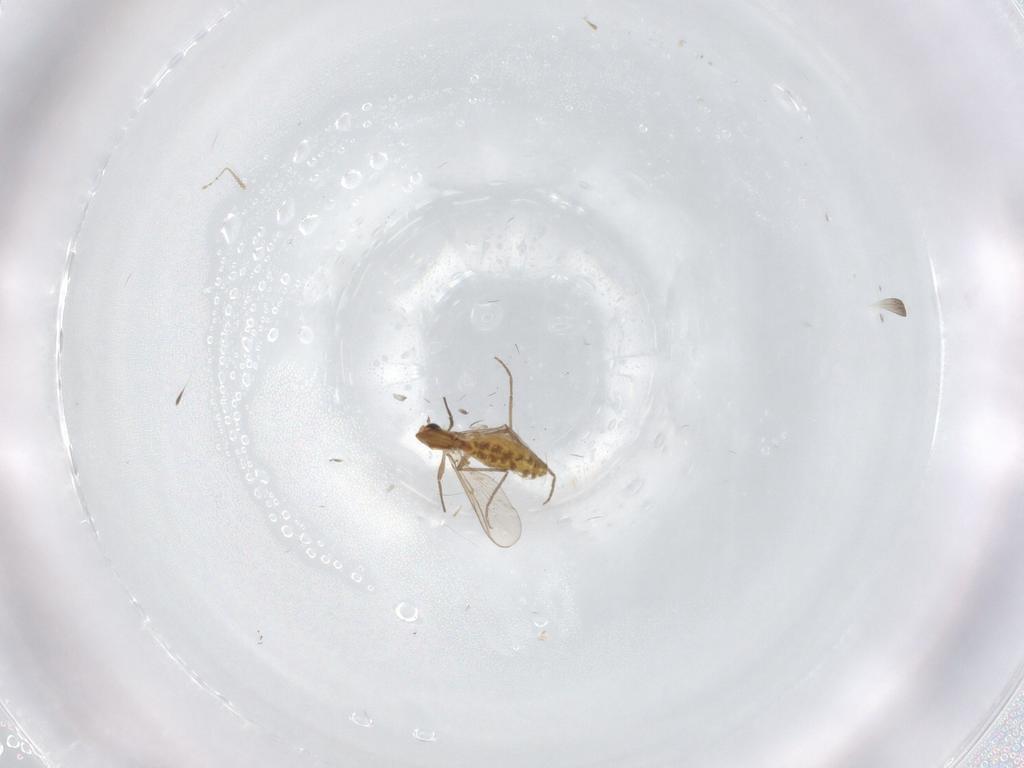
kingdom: Animalia
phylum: Arthropoda
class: Insecta
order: Diptera
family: Chironomidae
